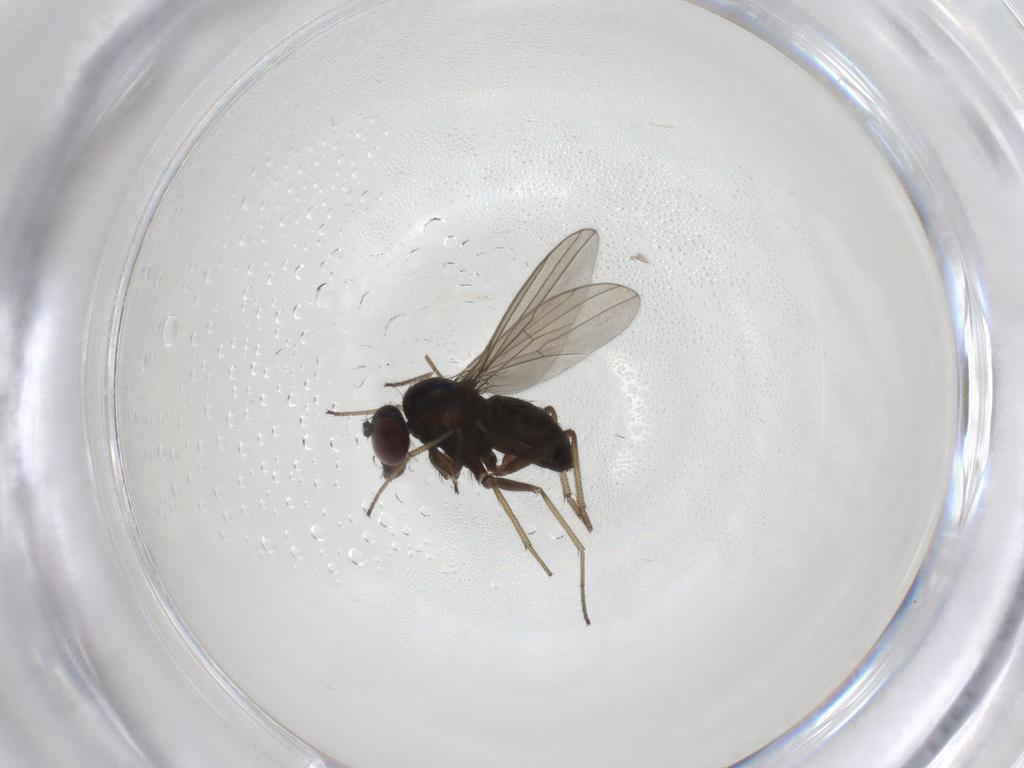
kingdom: Animalia
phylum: Arthropoda
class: Insecta
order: Diptera
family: Dolichopodidae
